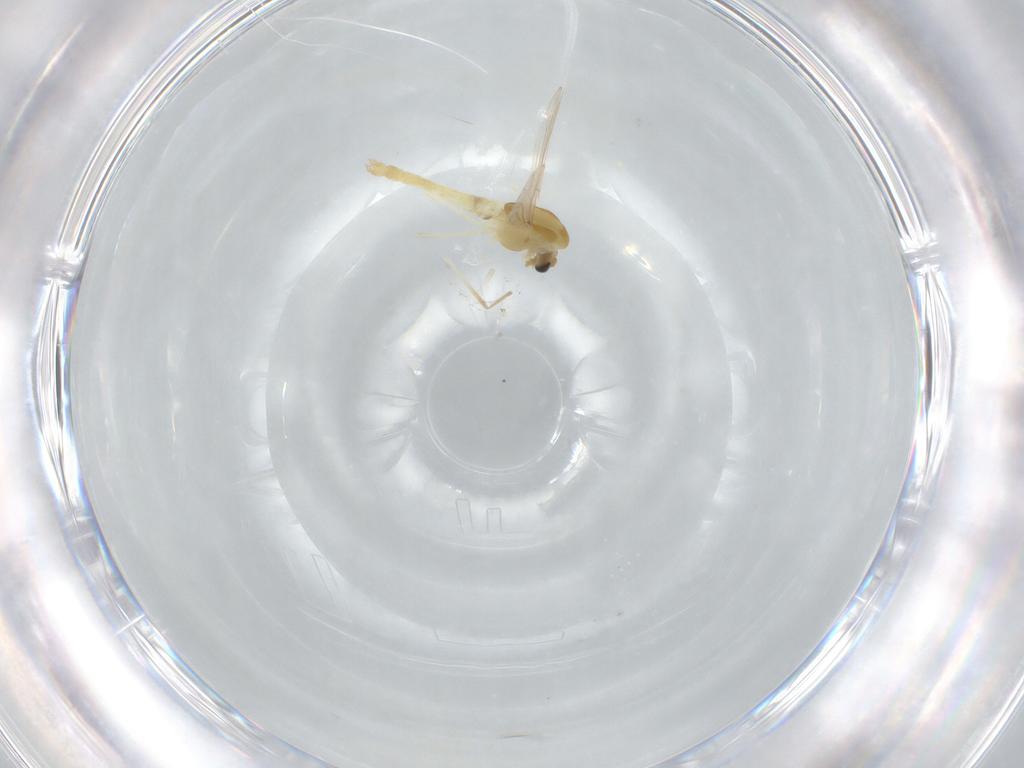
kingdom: Animalia
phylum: Arthropoda
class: Insecta
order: Diptera
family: Chironomidae
